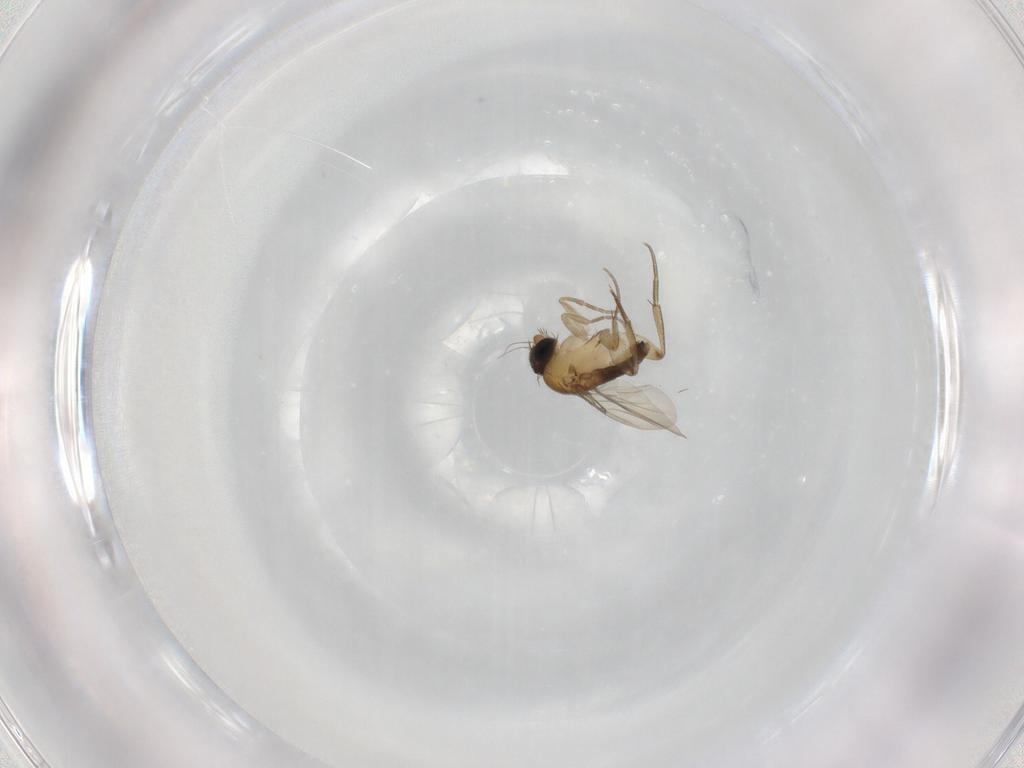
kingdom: Animalia
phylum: Arthropoda
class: Insecta
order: Diptera
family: Phoridae
